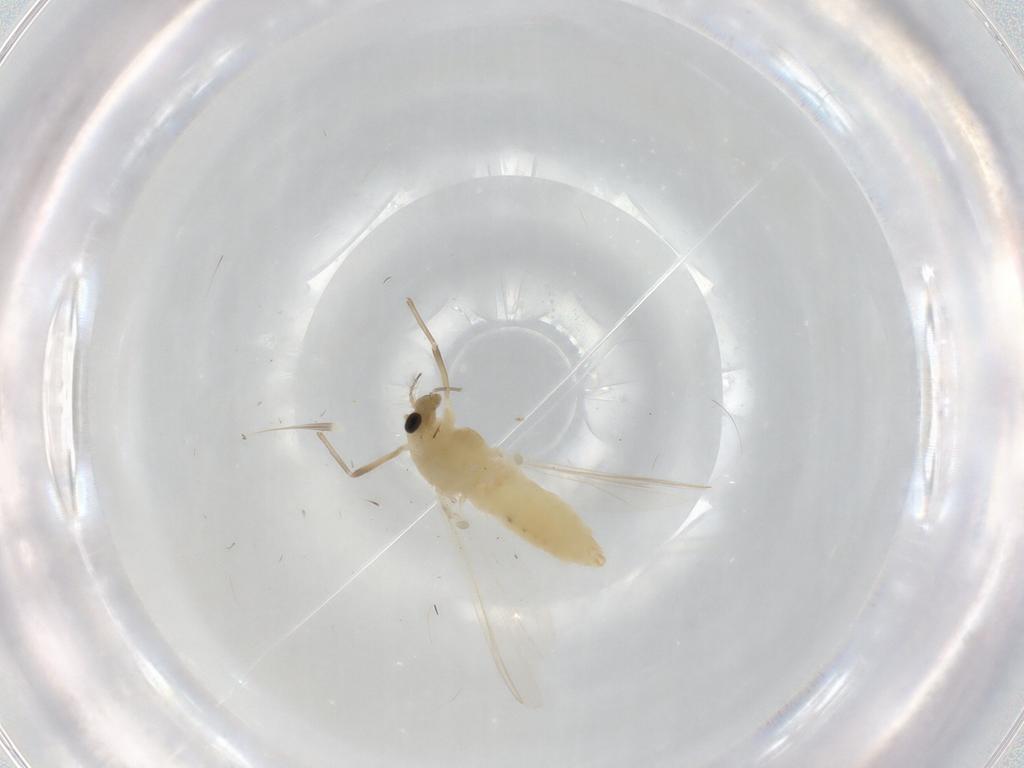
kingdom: Animalia
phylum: Arthropoda
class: Insecta
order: Diptera
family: Chironomidae
